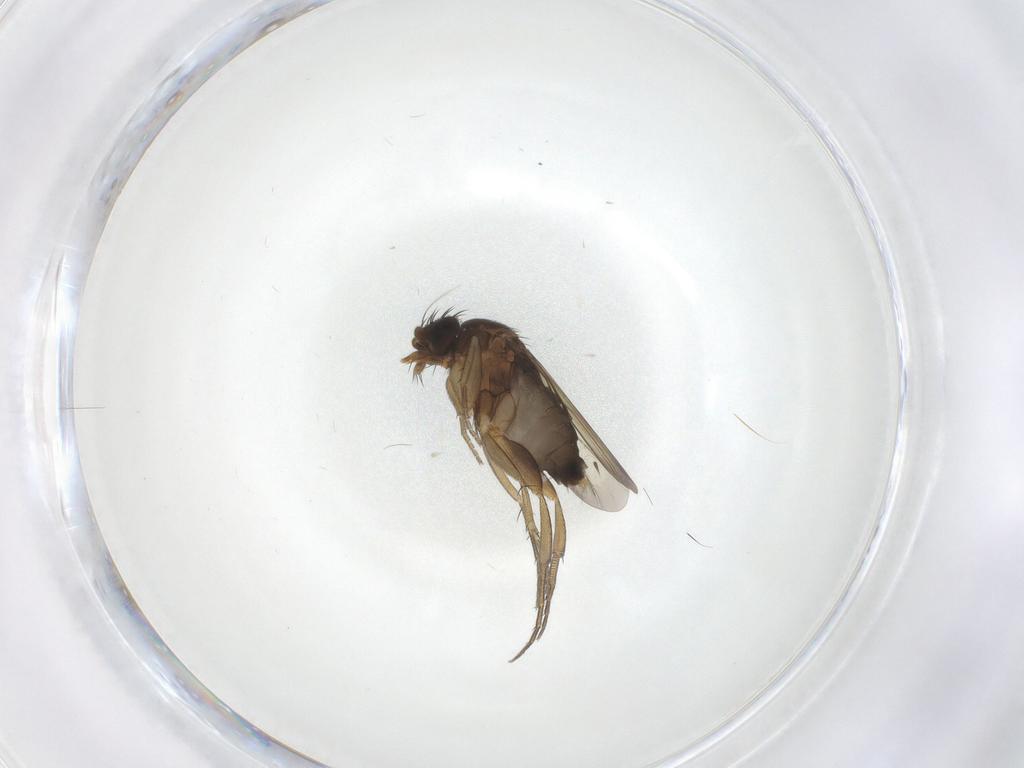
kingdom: Animalia
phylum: Arthropoda
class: Insecta
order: Diptera
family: Phoridae
